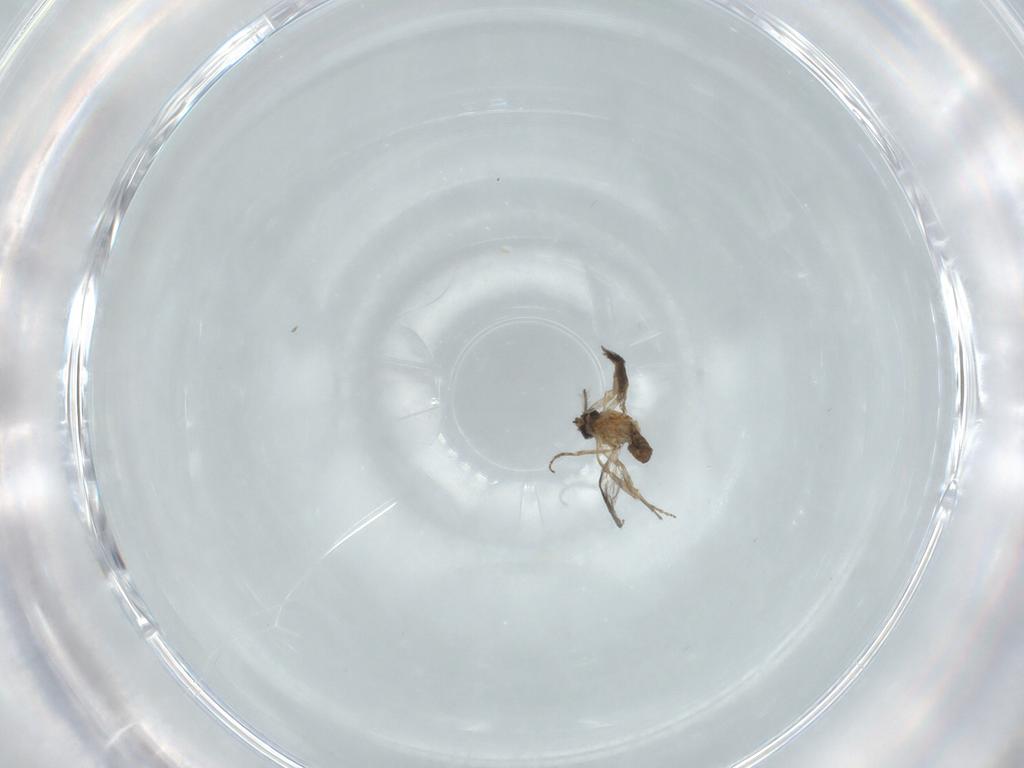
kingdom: Animalia
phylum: Arthropoda
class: Insecta
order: Diptera
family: Ceratopogonidae
